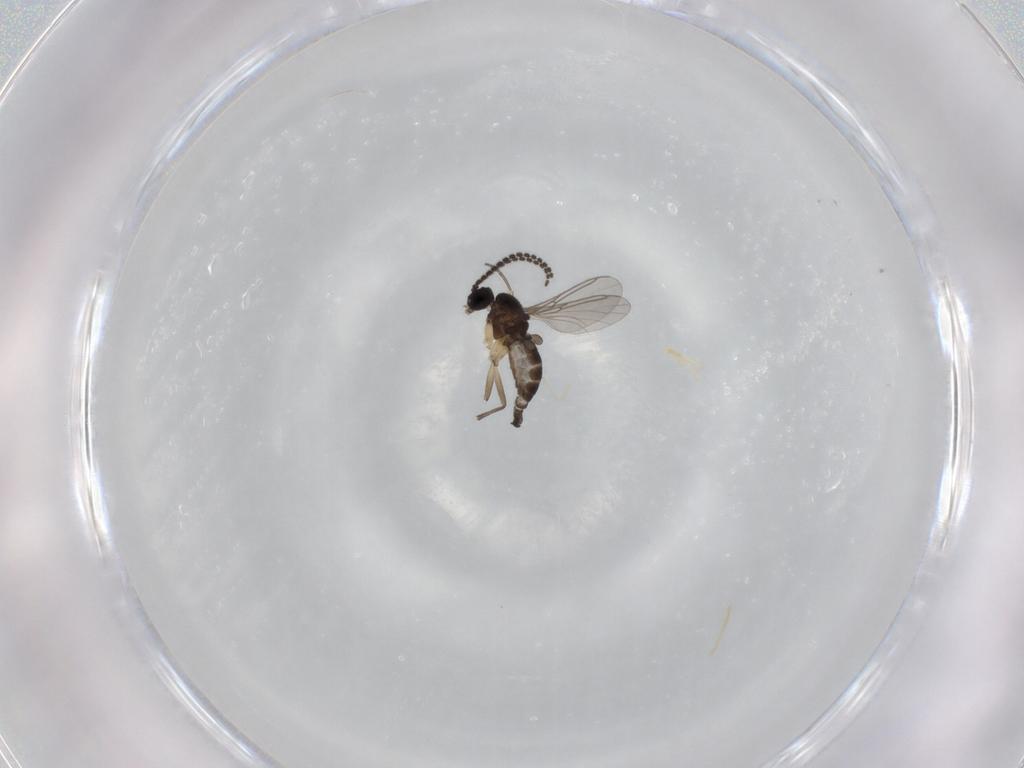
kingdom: Animalia
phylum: Arthropoda
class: Insecta
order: Diptera
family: Sciaridae
